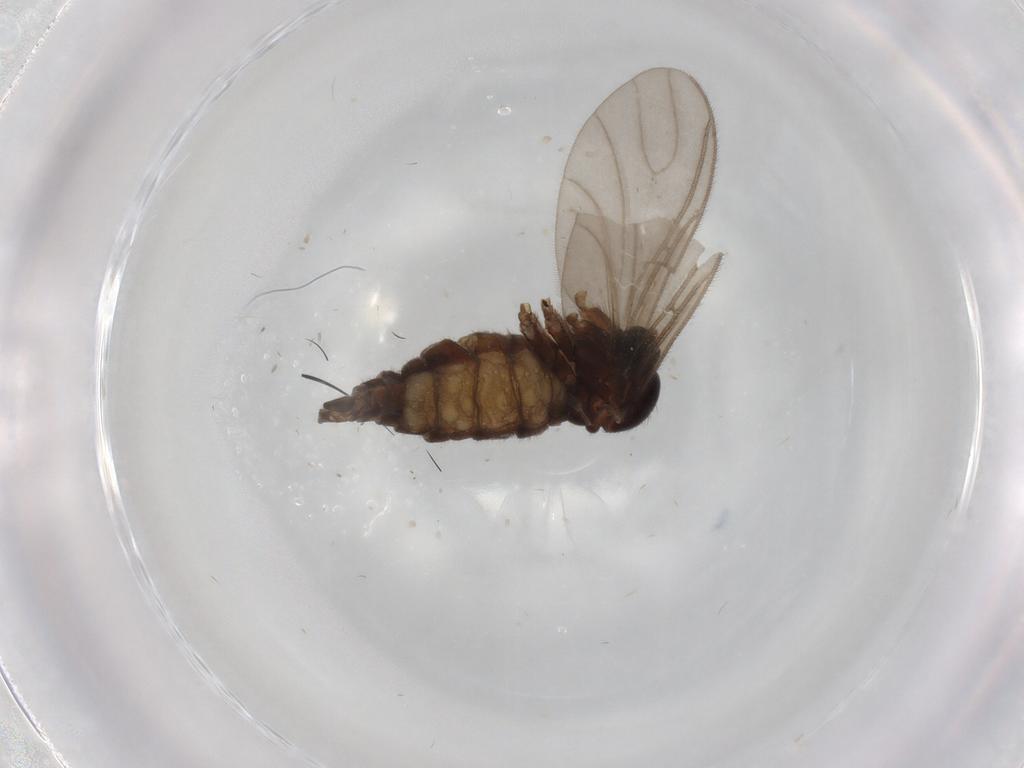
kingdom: Animalia
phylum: Arthropoda
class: Insecta
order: Diptera
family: Sciaridae
